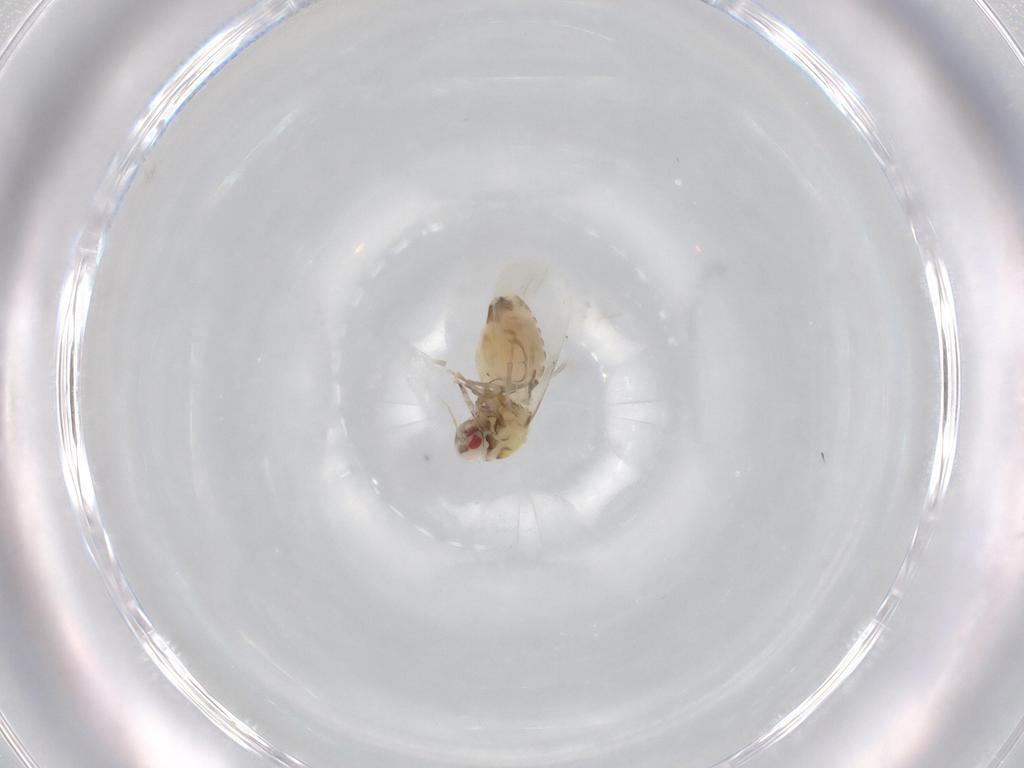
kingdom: Animalia
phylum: Arthropoda
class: Insecta
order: Hemiptera
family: Aleyrodidae
